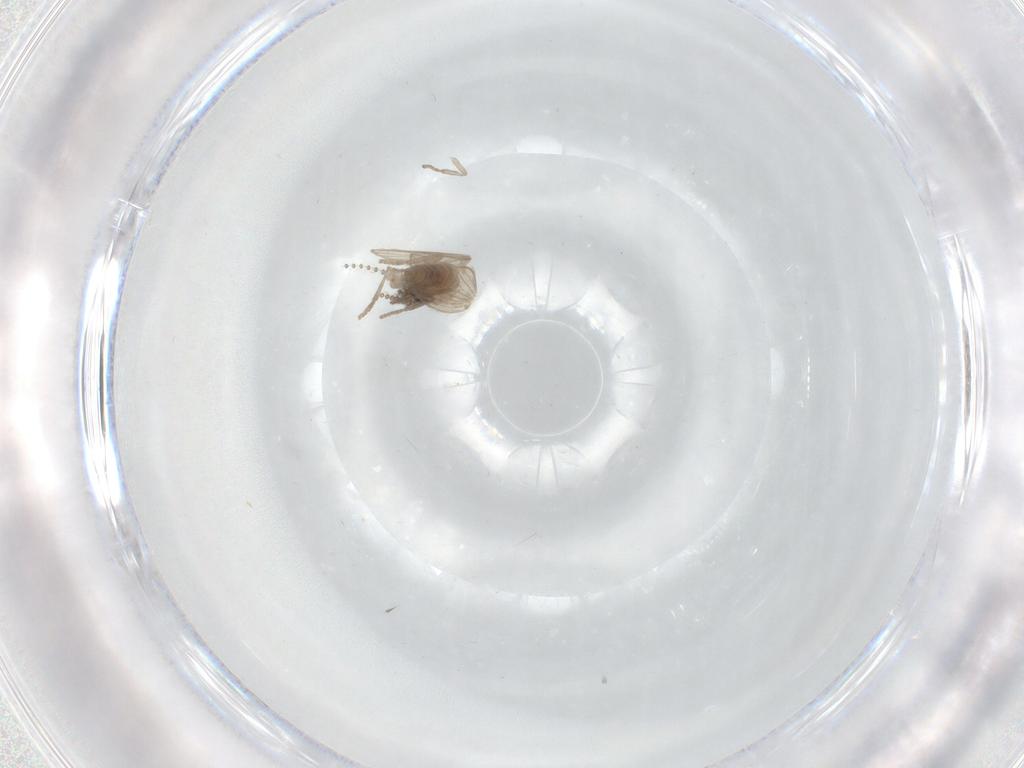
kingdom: Animalia
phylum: Arthropoda
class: Insecta
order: Diptera
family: Psychodidae
